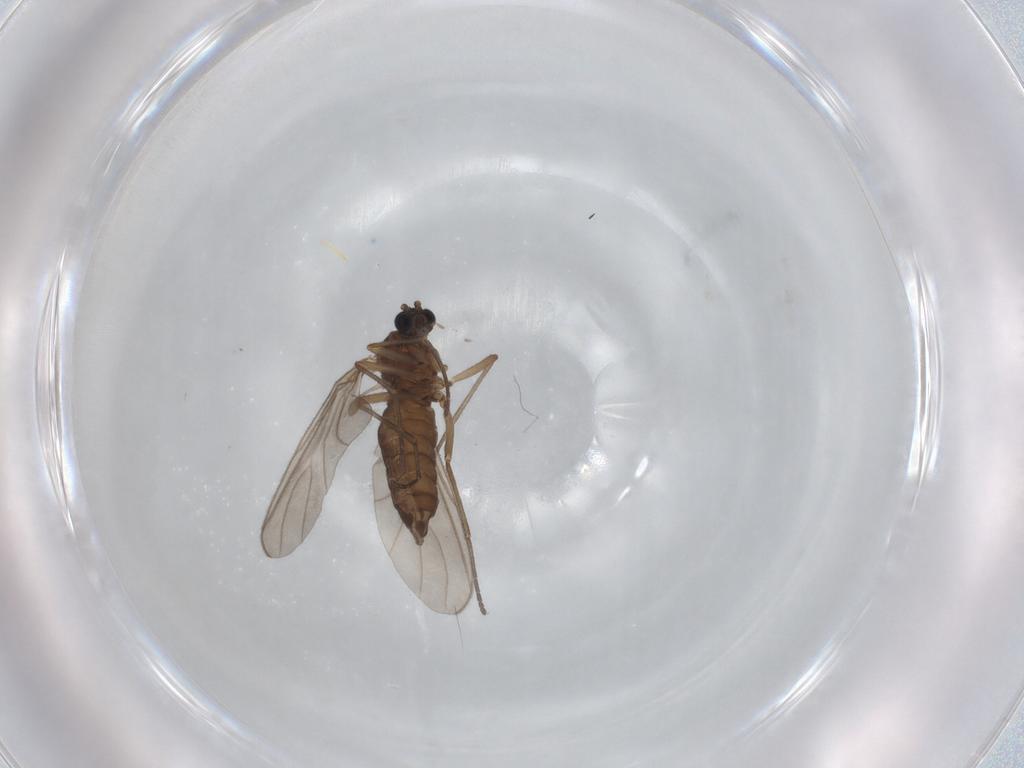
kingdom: Animalia
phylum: Arthropoda
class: Insecta
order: Diptera
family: Sciaridae
